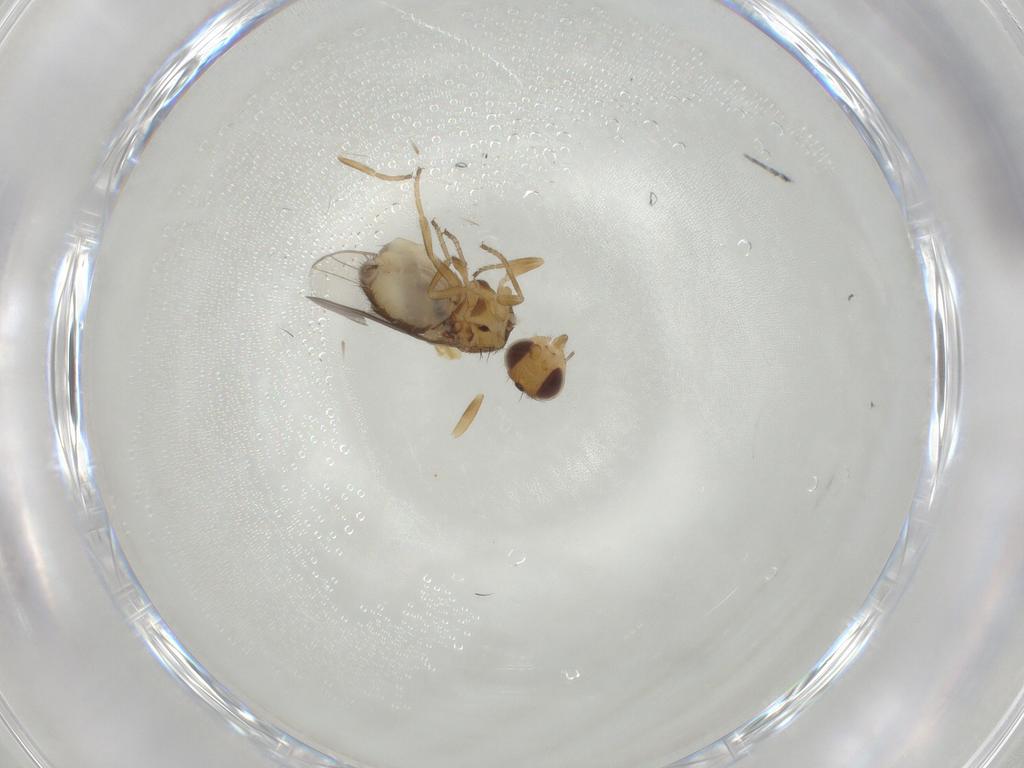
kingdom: Animalia
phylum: Arthropoda
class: Insecta
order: Diptera
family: Chloropidae
